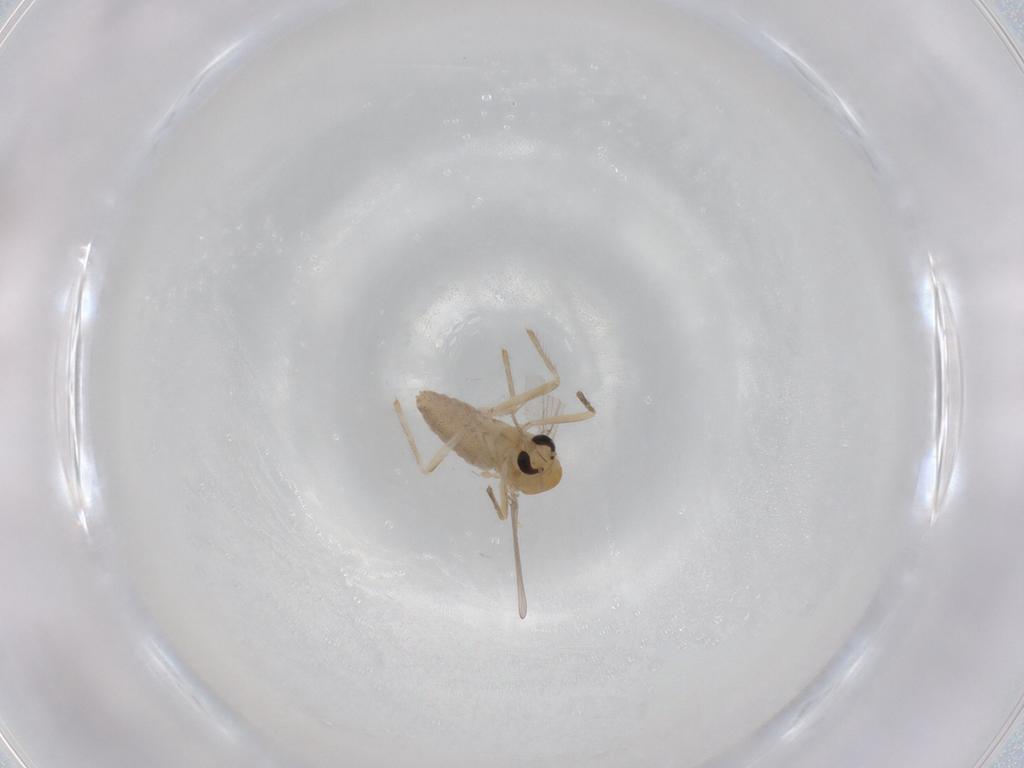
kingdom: Animalia
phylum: Arthropoda
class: Insecta
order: Diptera
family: Chironomidae
